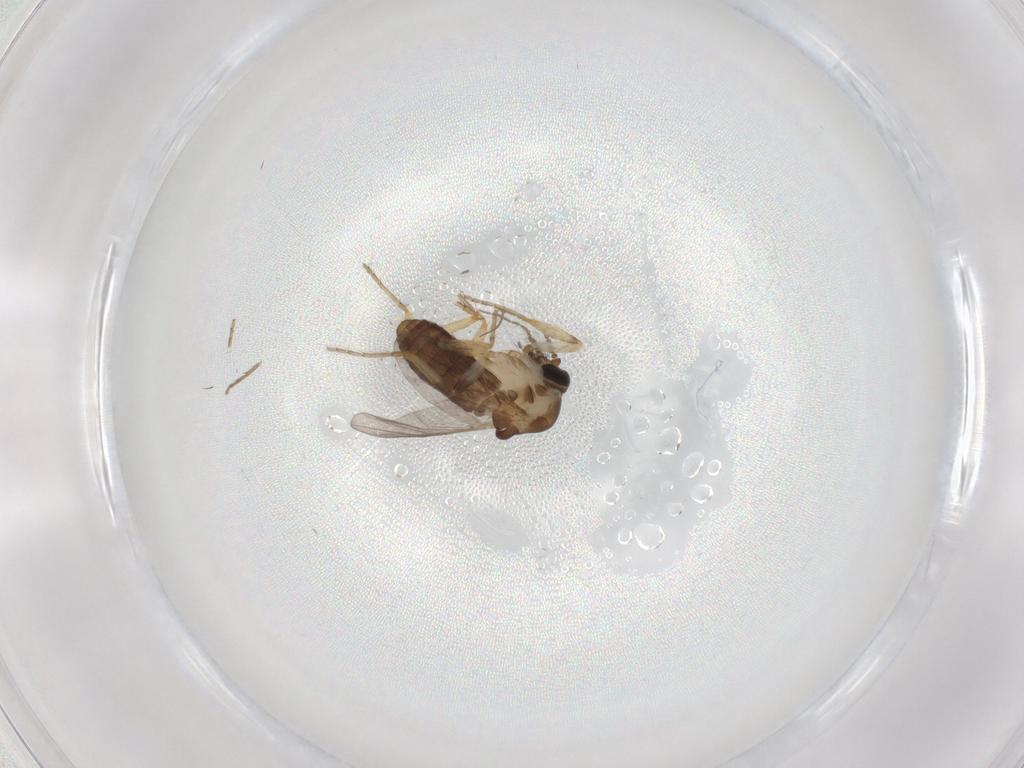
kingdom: Animalia
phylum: Arthropoda
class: Insecta
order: Diptera
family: Ceratopogonidae
